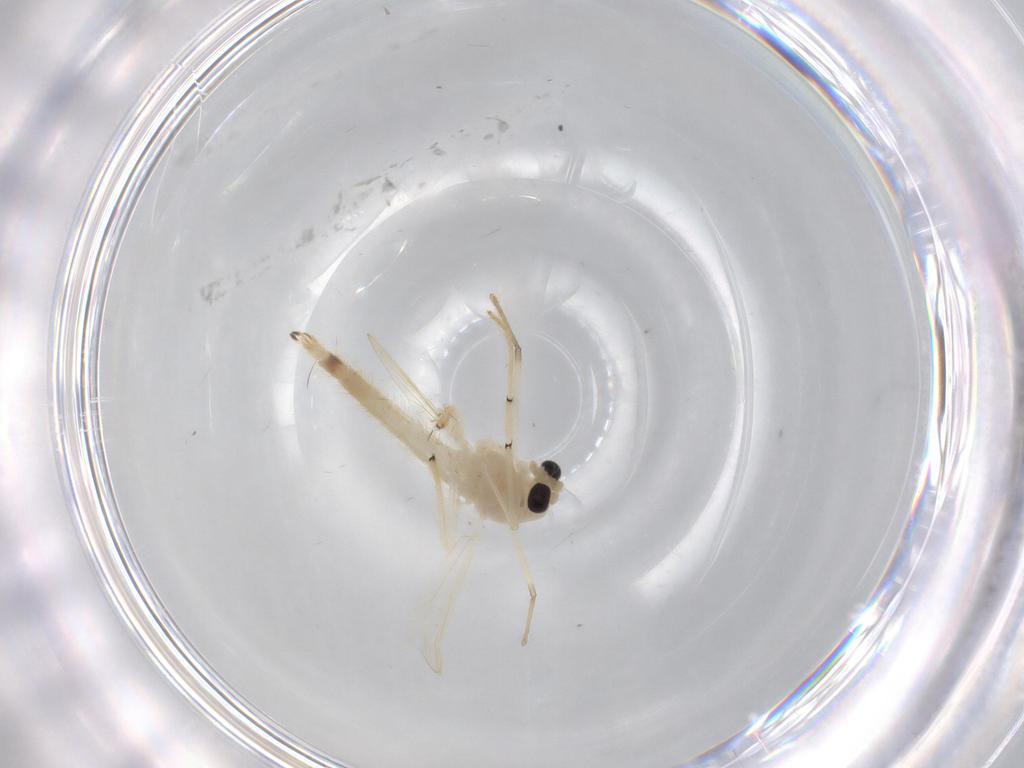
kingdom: Animalia
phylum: Arthropoda
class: Insecta
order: Diptera
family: Chironomidae
